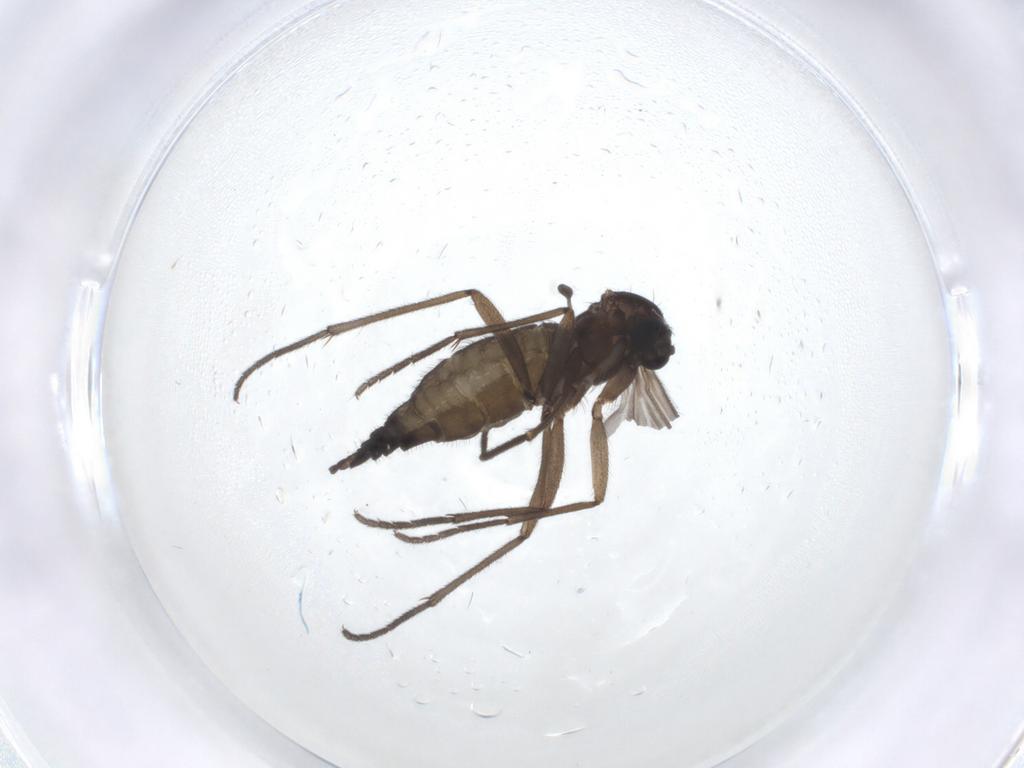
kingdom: Animalia
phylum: Arthropoda
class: Insecta
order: Diptera
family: Sciaridae
